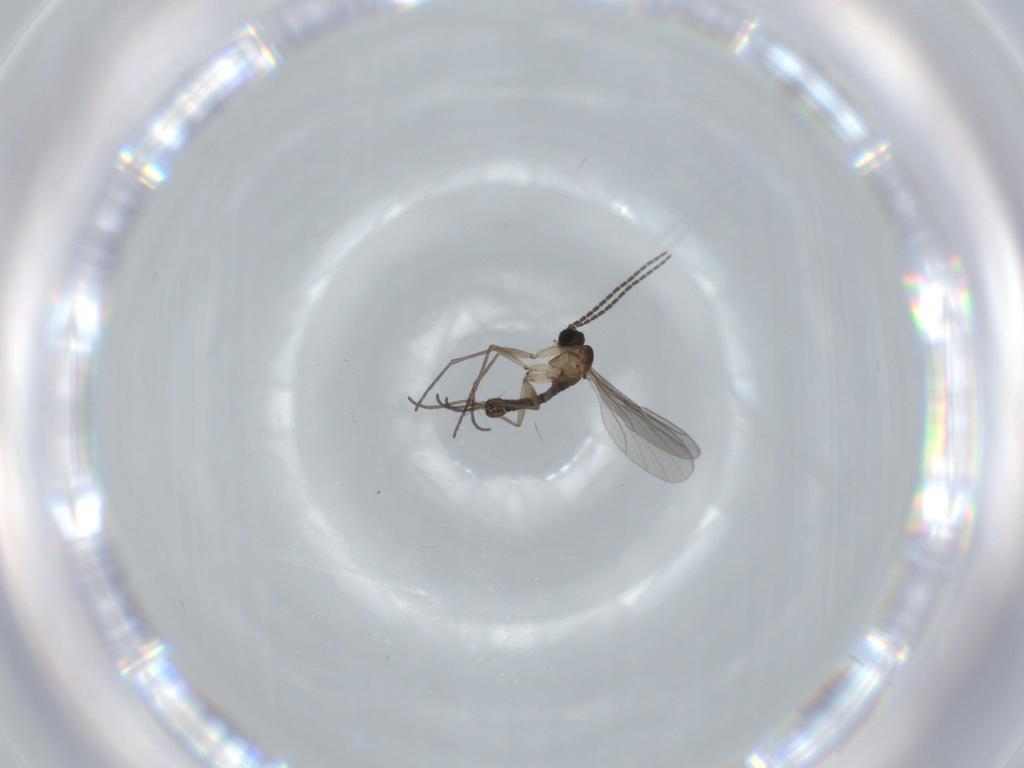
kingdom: Animalia
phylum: Arthropoda
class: Insecta
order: Diptera
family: Sciaridae
